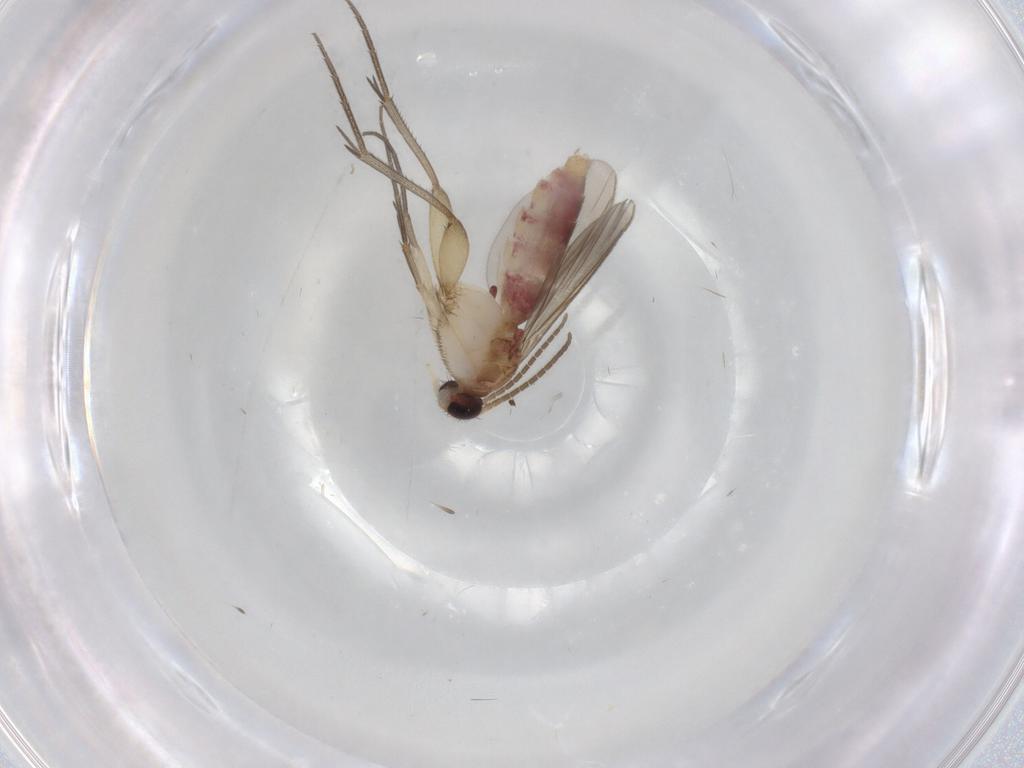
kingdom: Animalia
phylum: Arthropoda
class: Insecta
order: Diptera
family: Mycetophilidae
